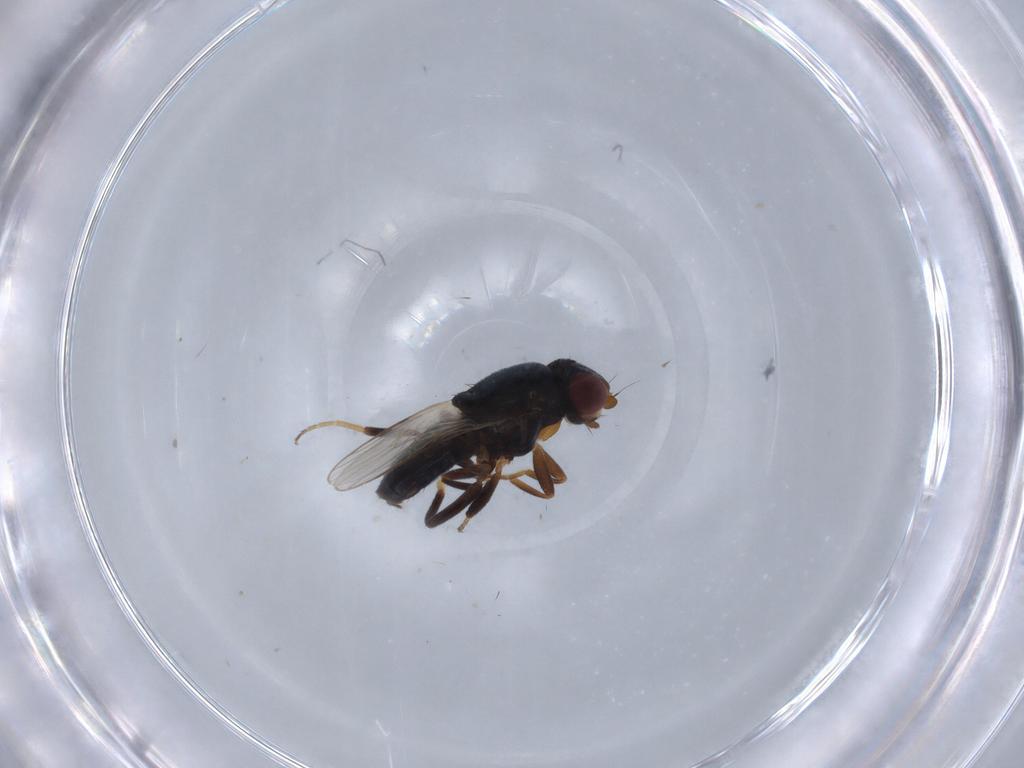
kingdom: Animalia
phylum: Arthropoda
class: Insecta
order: Diptera
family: Chloropidae
